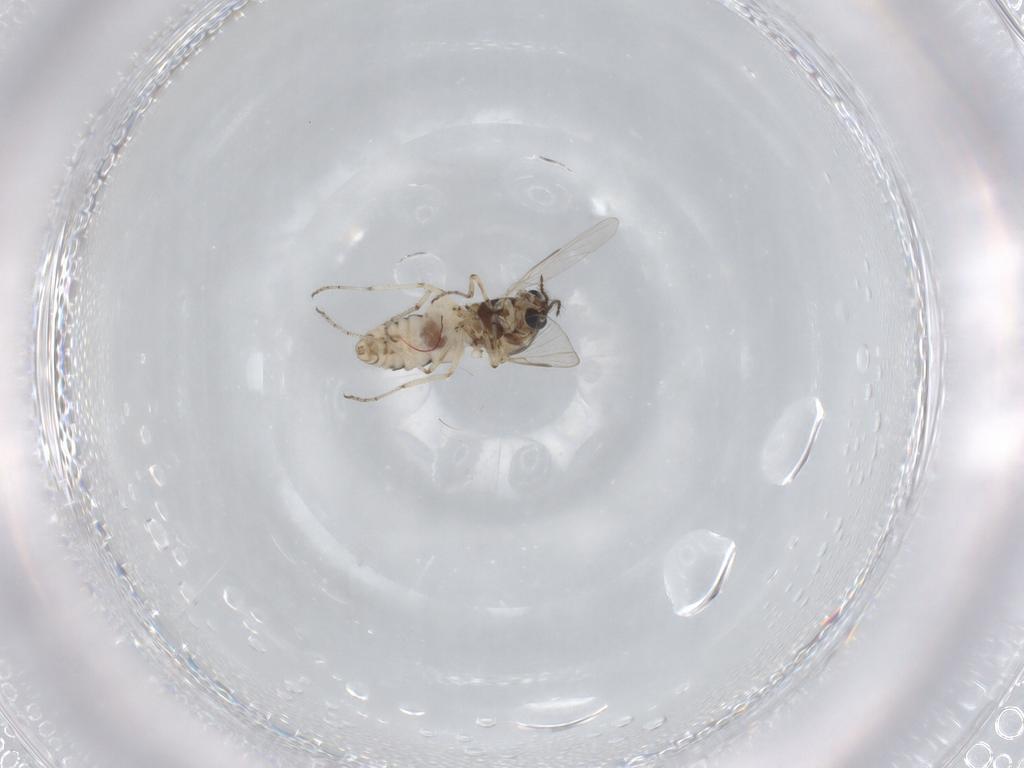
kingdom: Animalia
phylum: Arthropoda
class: Insecta
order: Diptera
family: Ceratopogonidae
